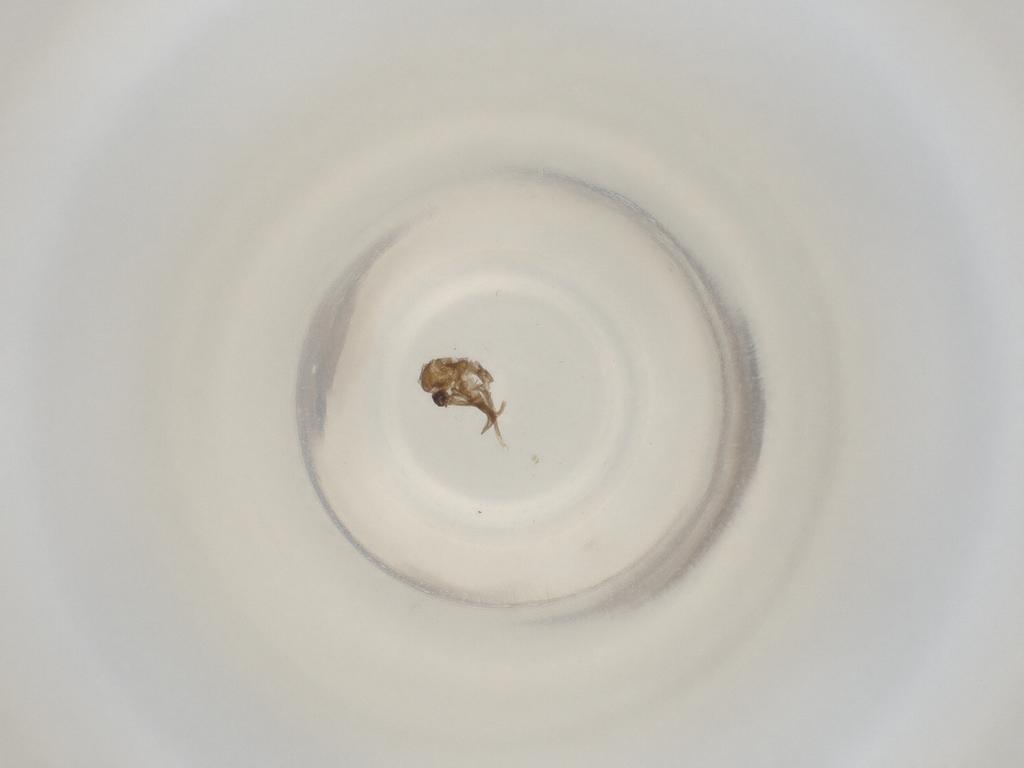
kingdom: Animalia
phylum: Arthropoda
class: Insecta
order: Diptera
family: Cecidomyiidae
